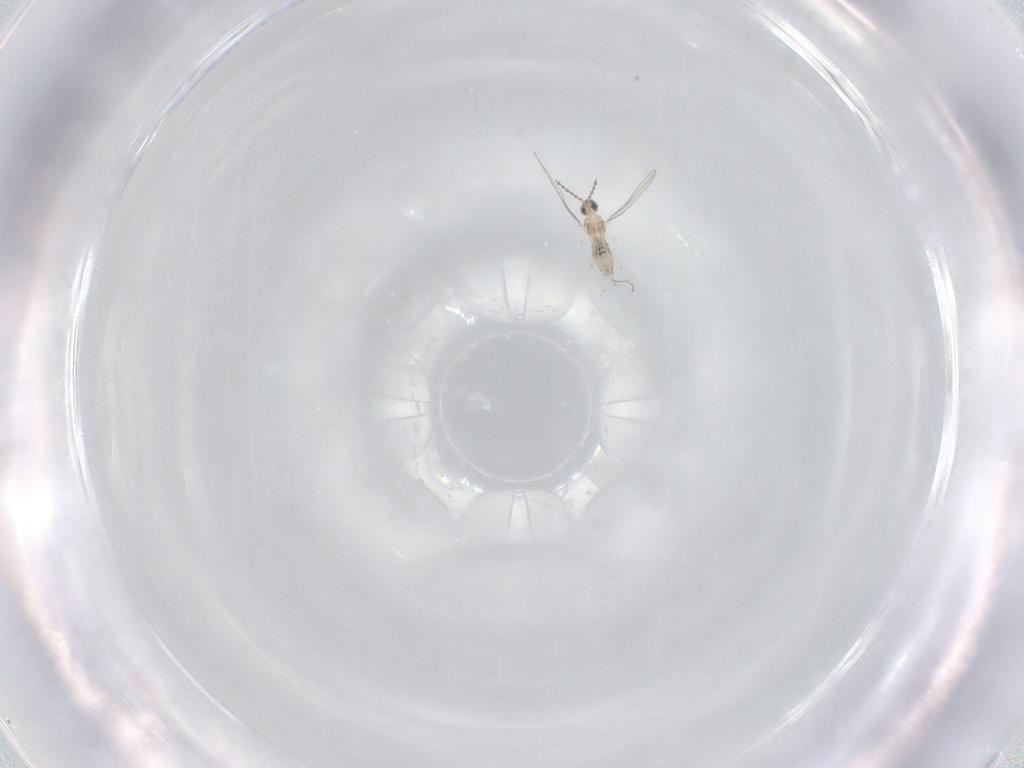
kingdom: Animalia
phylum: Arthropoda
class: Insecta
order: Diptera
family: Cecidomyiidae
